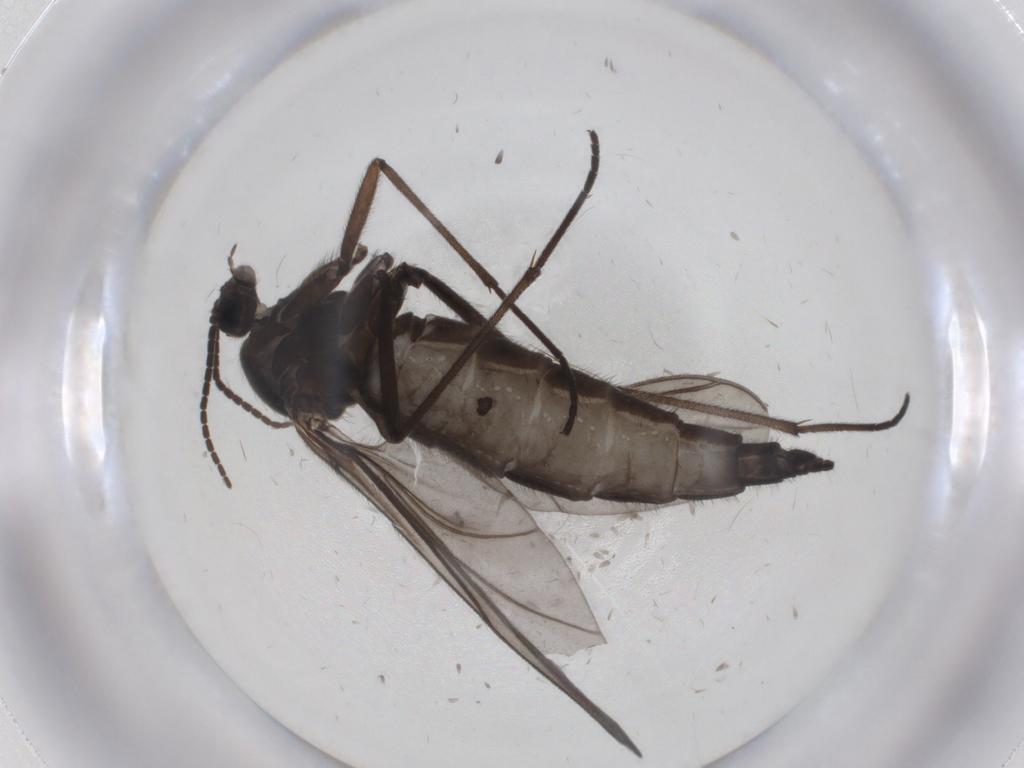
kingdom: Animalia
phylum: Arthropoda
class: Insecta
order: Diptera
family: Sciaridae
